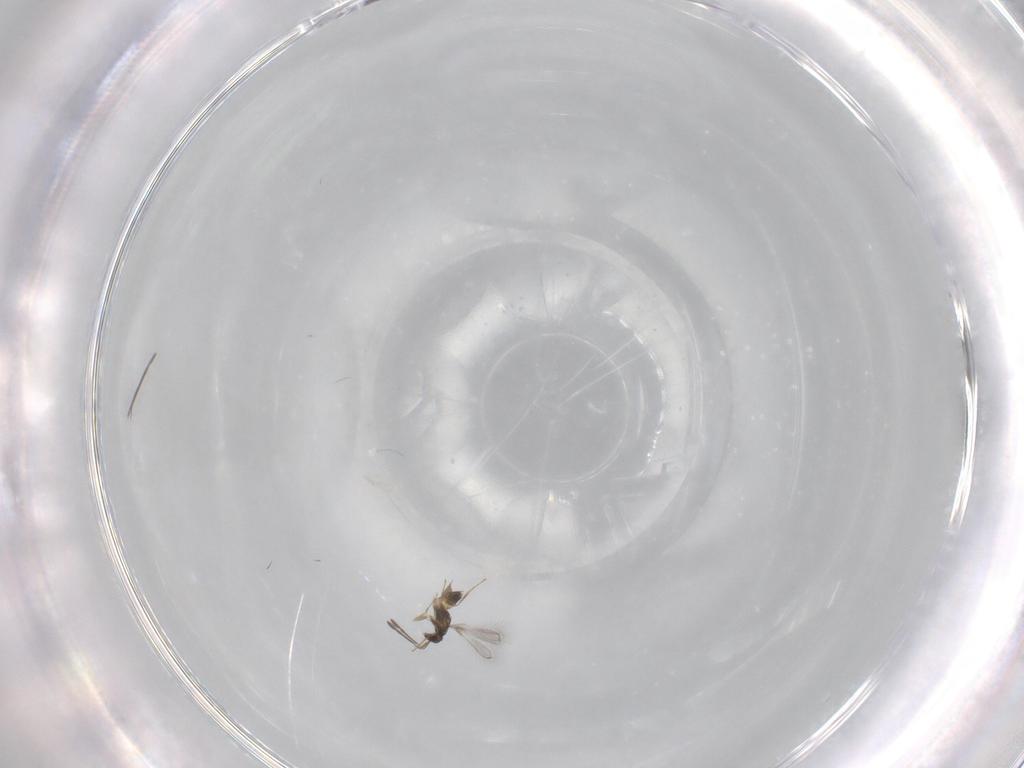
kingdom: Animalia
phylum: Arthropoda
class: Insecta
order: Hymenoptera
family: Mymaridae
